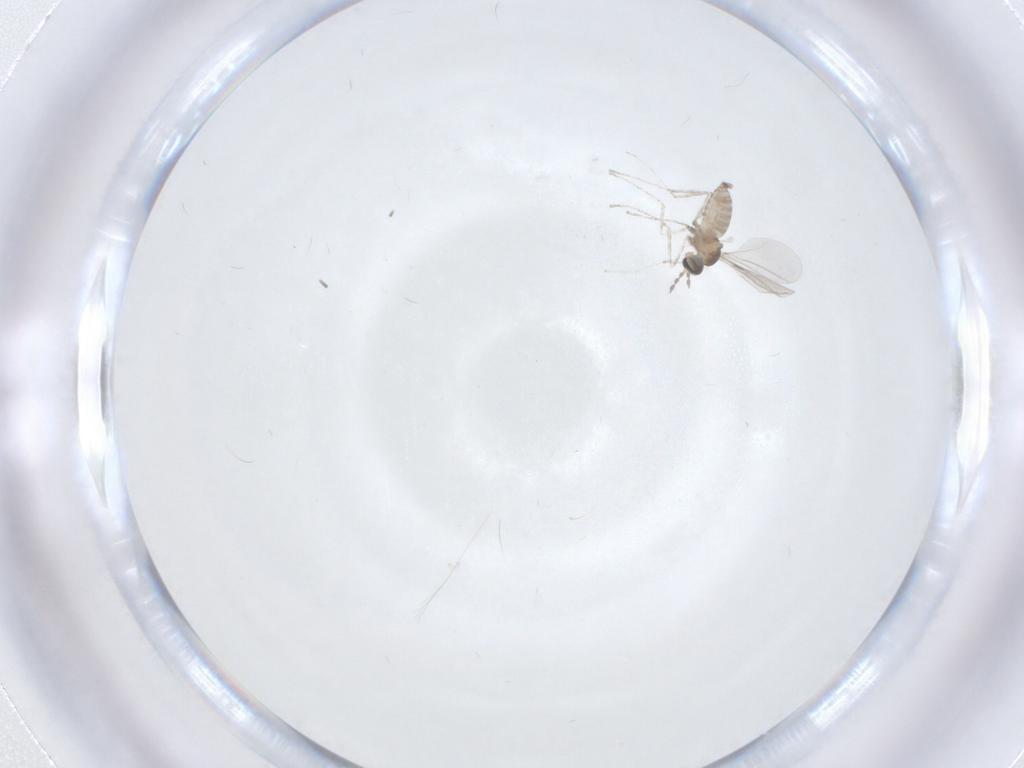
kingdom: Animalia
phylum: Arthropoda
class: Insecta
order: Diptera
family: Cecidomyiidae
